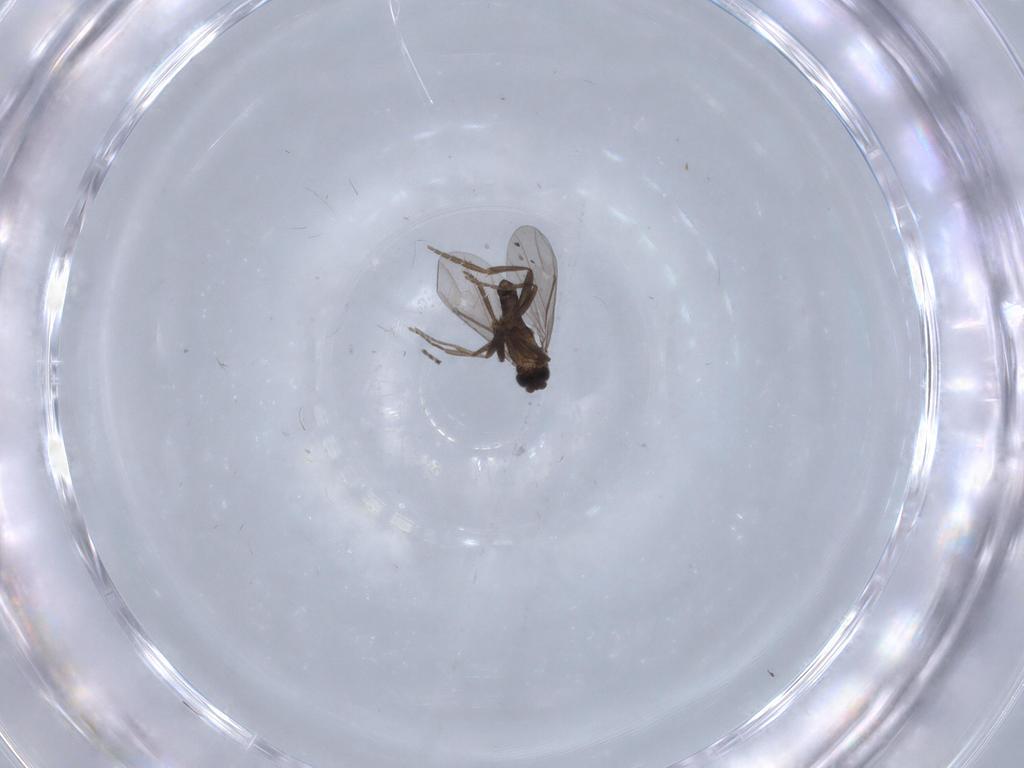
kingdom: Animalia
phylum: Arthropoda
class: Insecta
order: Diptera
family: Phoridae
